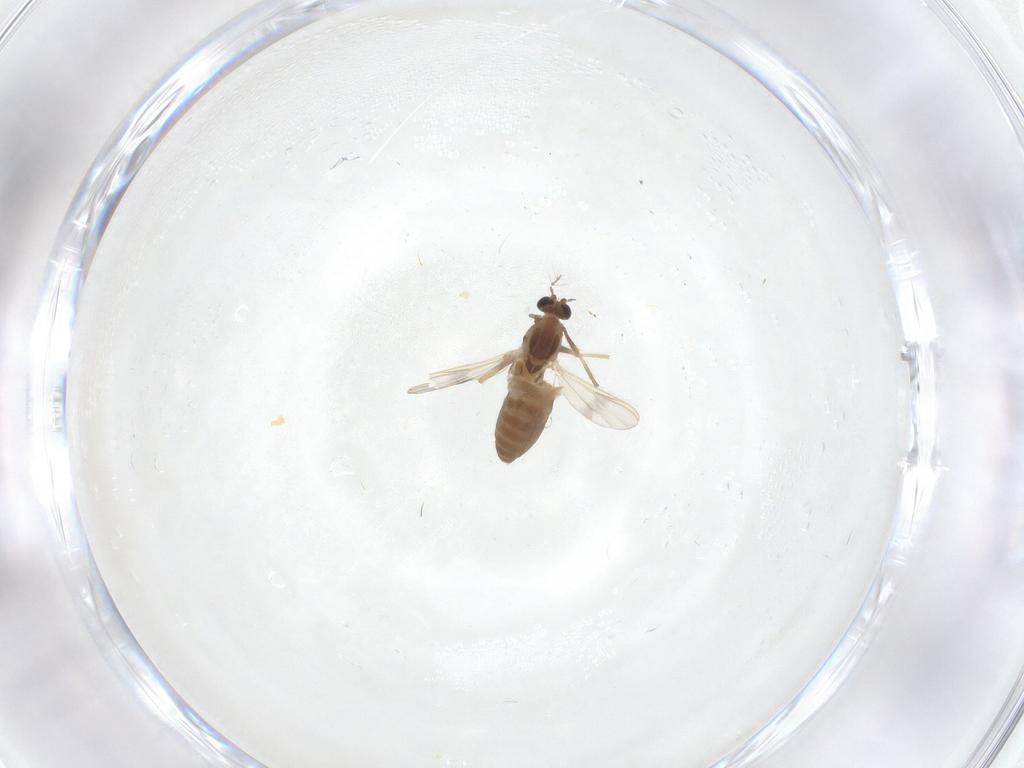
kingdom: Animalia
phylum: Arthropoda
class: Insecta
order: Diptera
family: Chironomidae
